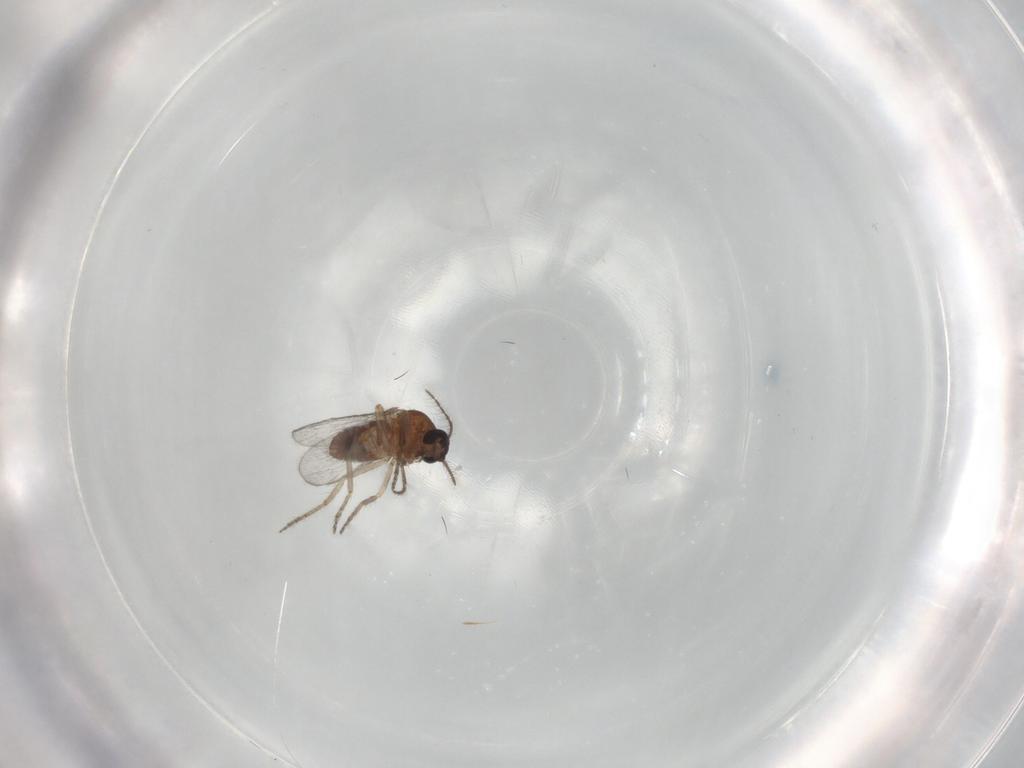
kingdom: Animalia
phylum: Arthropoda
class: Insecta
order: Diptera
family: Ceratopogonidae
